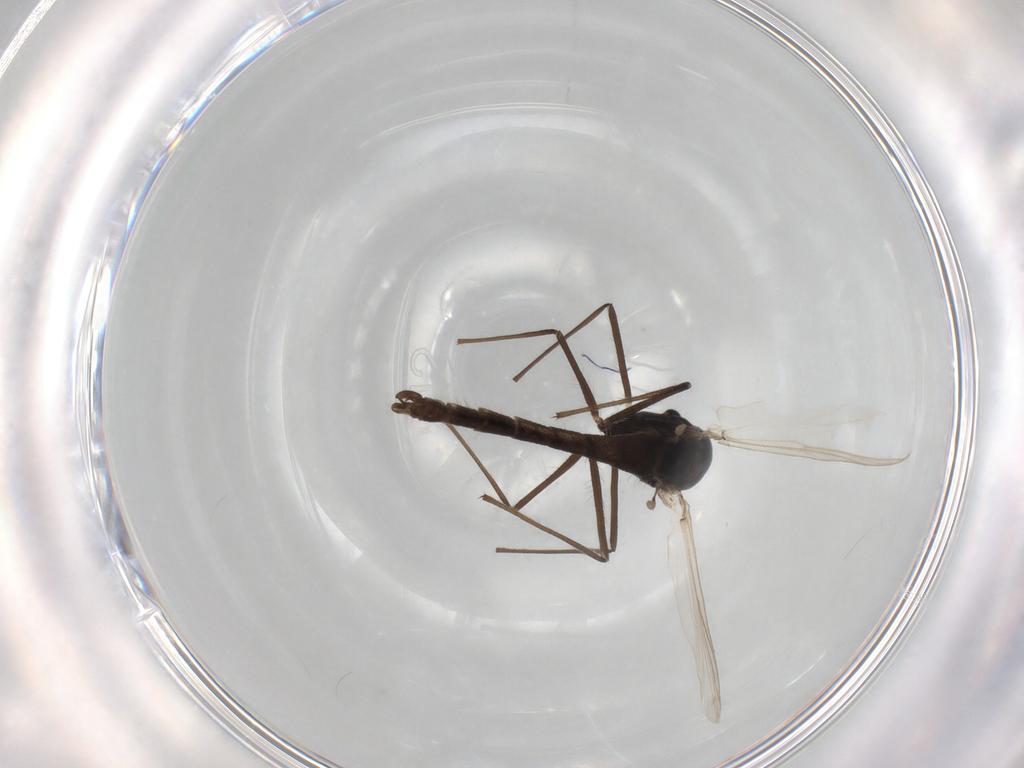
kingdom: Animalia
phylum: Arthropoda
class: Insecta
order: Diptera
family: Chironomidae
